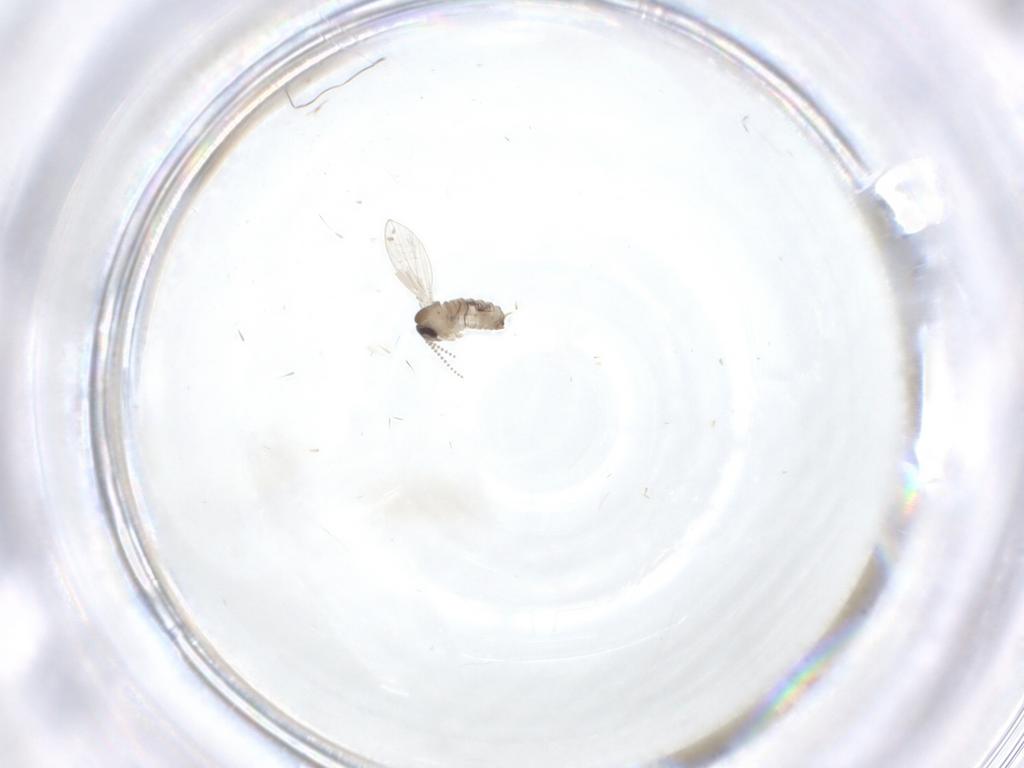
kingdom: Animalia
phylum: Arthropoda
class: Insecta
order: Diptera
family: Psychodidae
